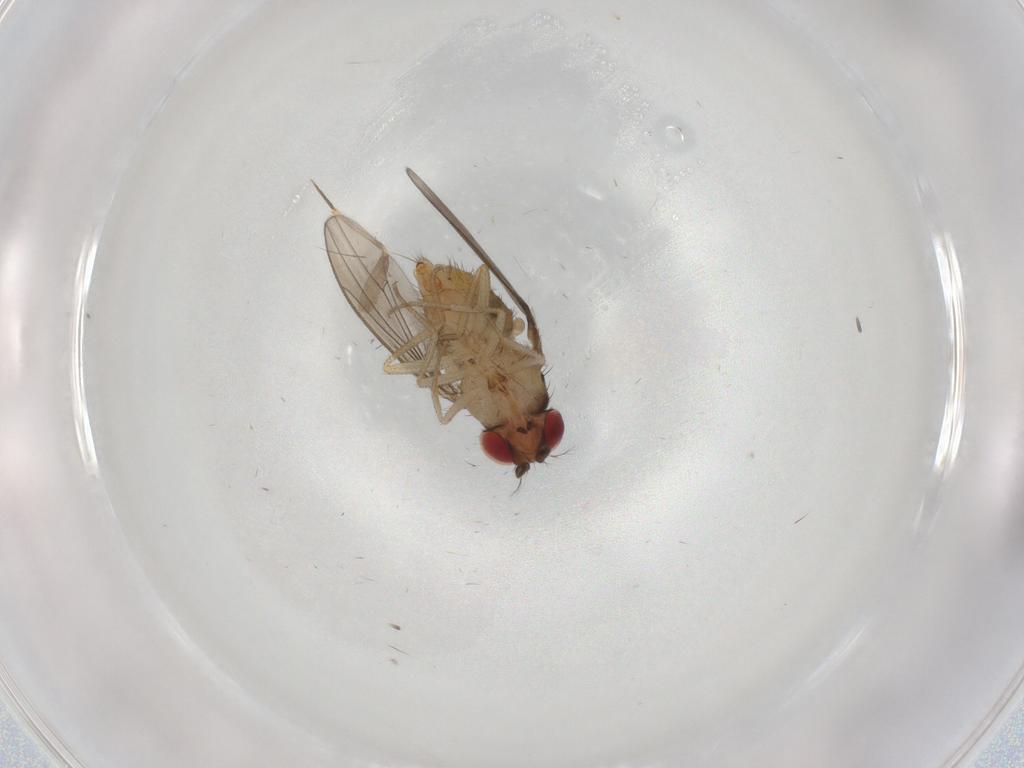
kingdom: Animalia
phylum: Arthropoda
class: Insecta
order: Diptera
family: Drosophilidae
